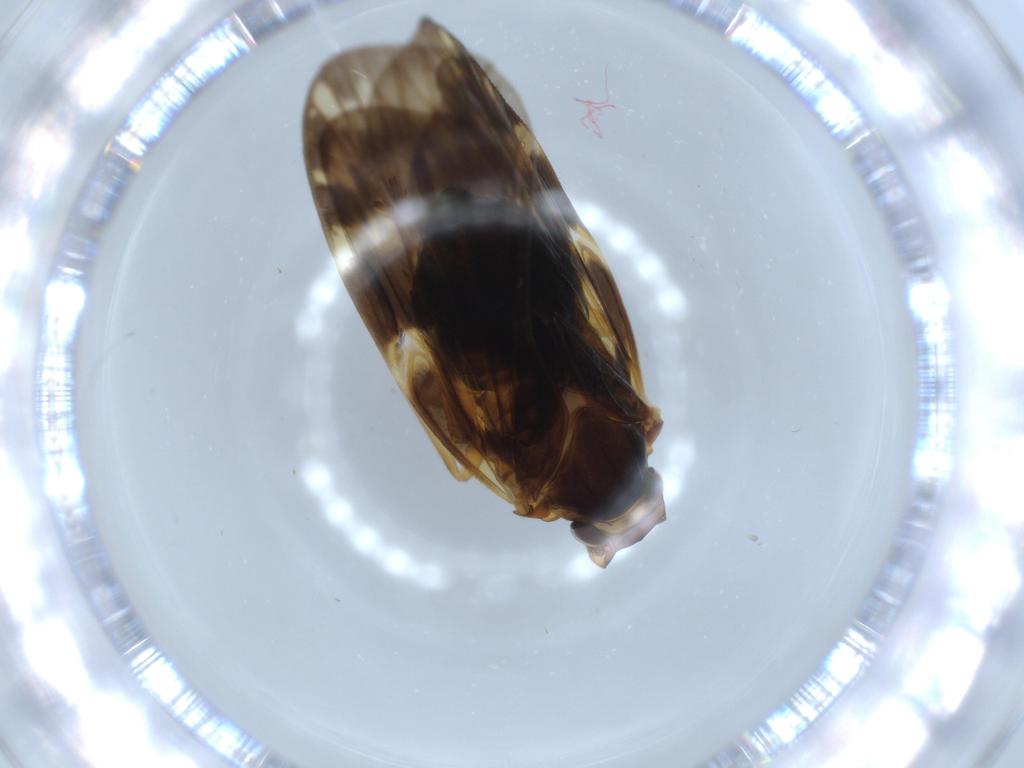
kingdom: Animalia
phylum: Arthropoda
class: Insecta
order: Hemiptera
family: Cixiidae
